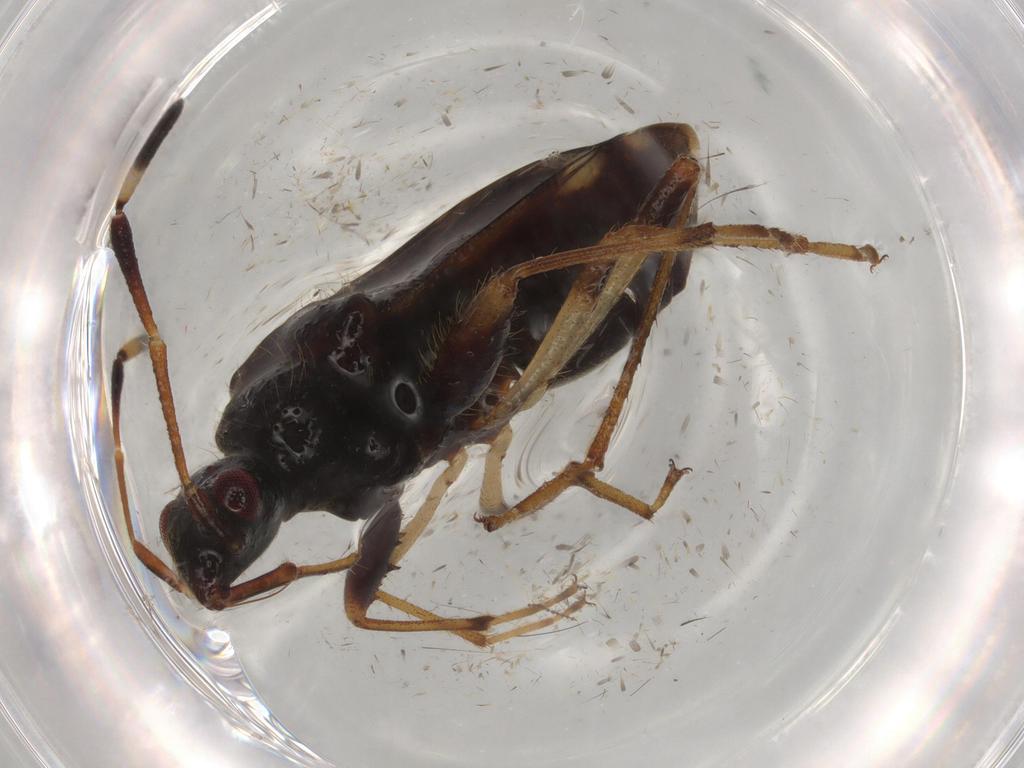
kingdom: Animalia
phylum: Arthropoda
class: Insecta
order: Hemiptera
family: Rhyparochromidae
